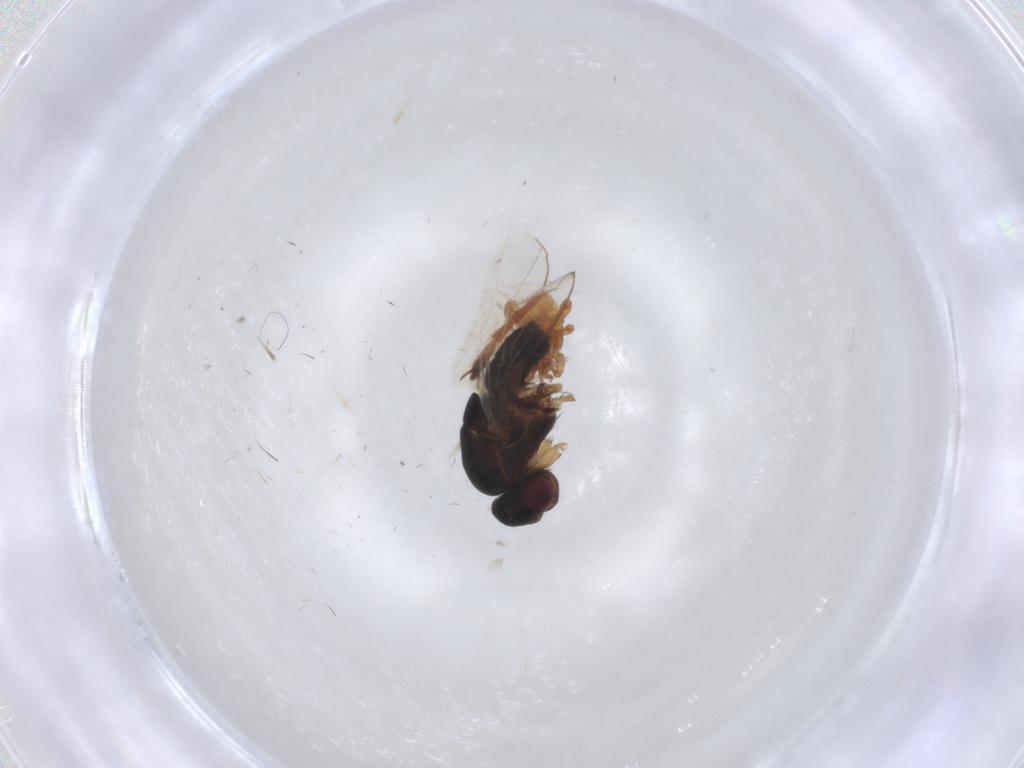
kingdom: Animalia
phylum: Arthropoda
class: Insecta
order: Diptera
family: Sphaeroceridae
